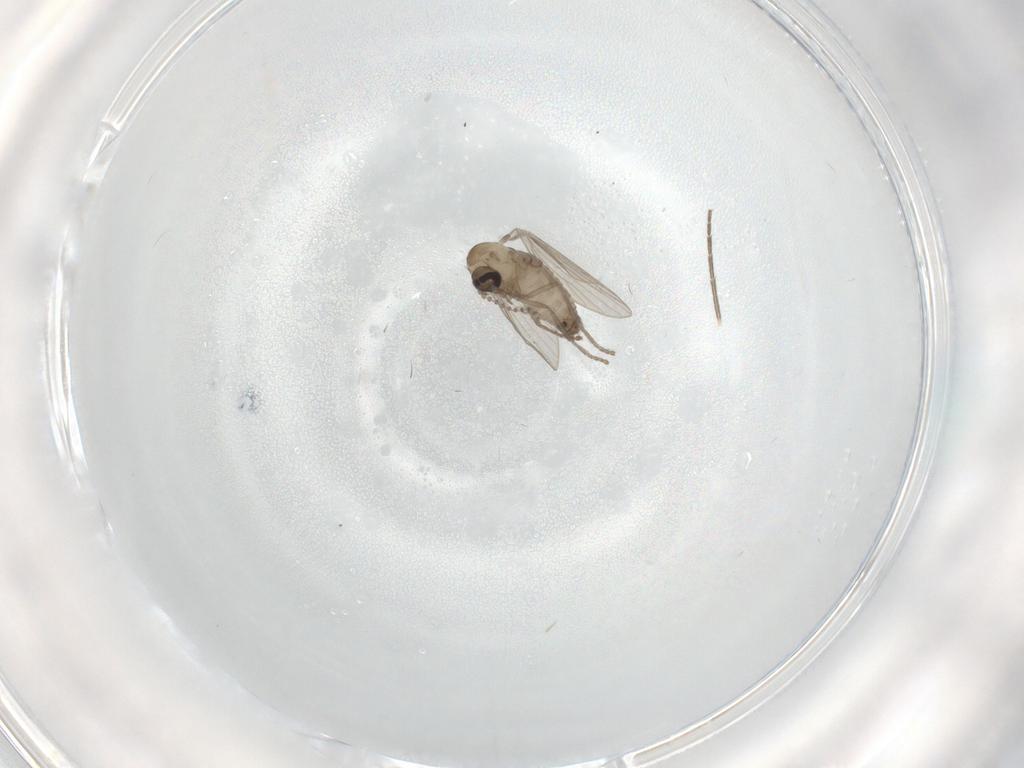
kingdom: Animalia
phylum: Arthropoda
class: Insecta
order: Diptera
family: Psychodidae
